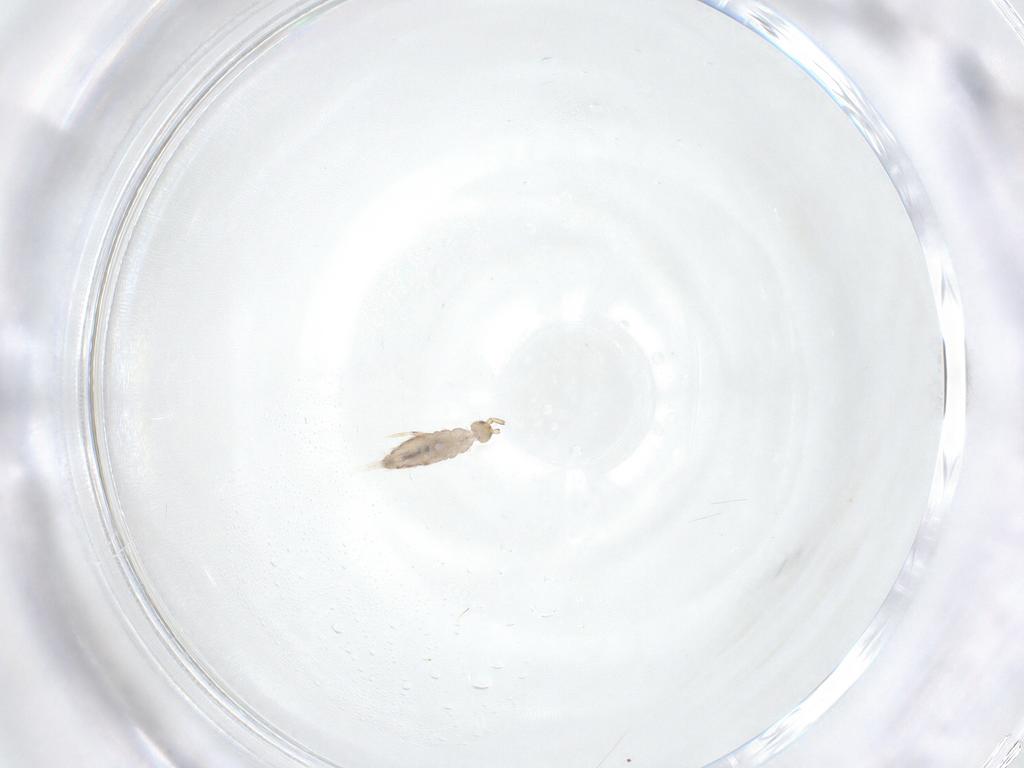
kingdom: Animalia
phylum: Arthropoda
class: Collembola
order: Entomobryomorpha
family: Entomobryidae
